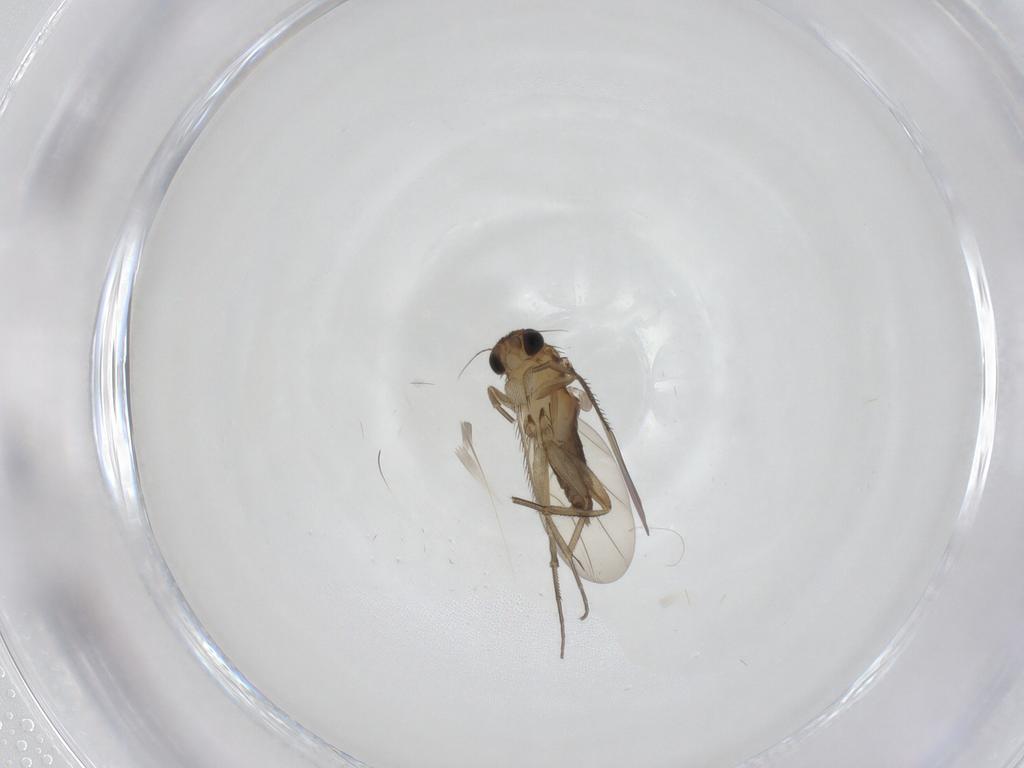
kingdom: Animalia
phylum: Arthropoda
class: Insecta
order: Diptera
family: Phoridae
